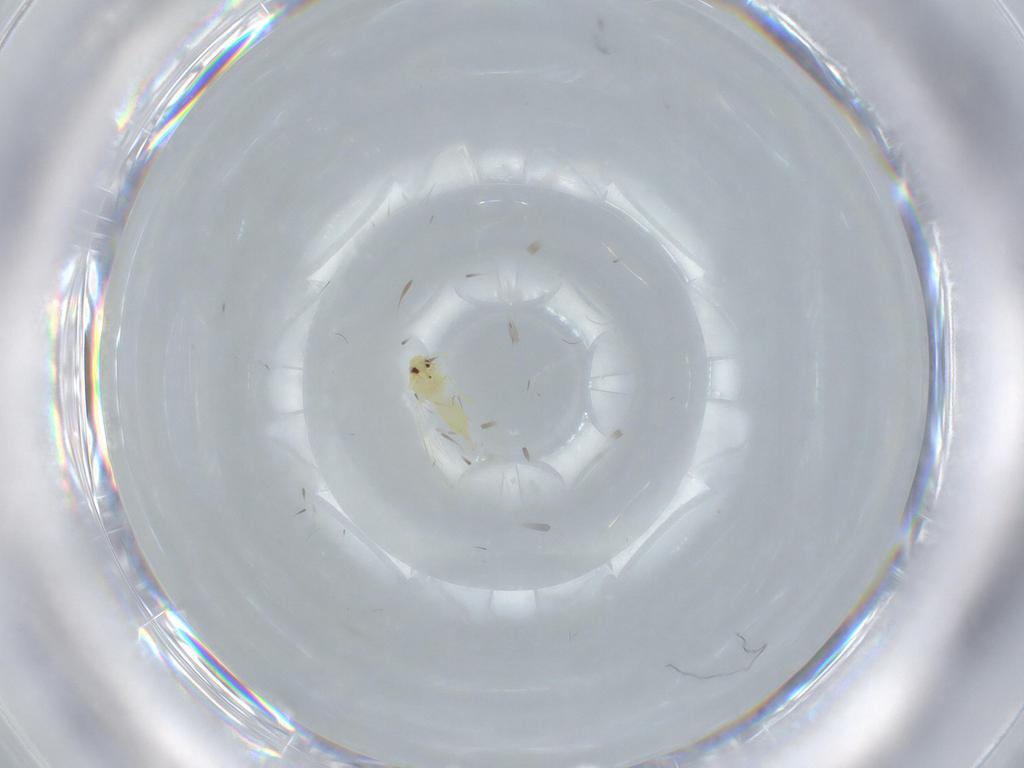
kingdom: Animalia
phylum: Arthropoda
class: Insecta
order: Hemiptera
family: Aleyrodidae
